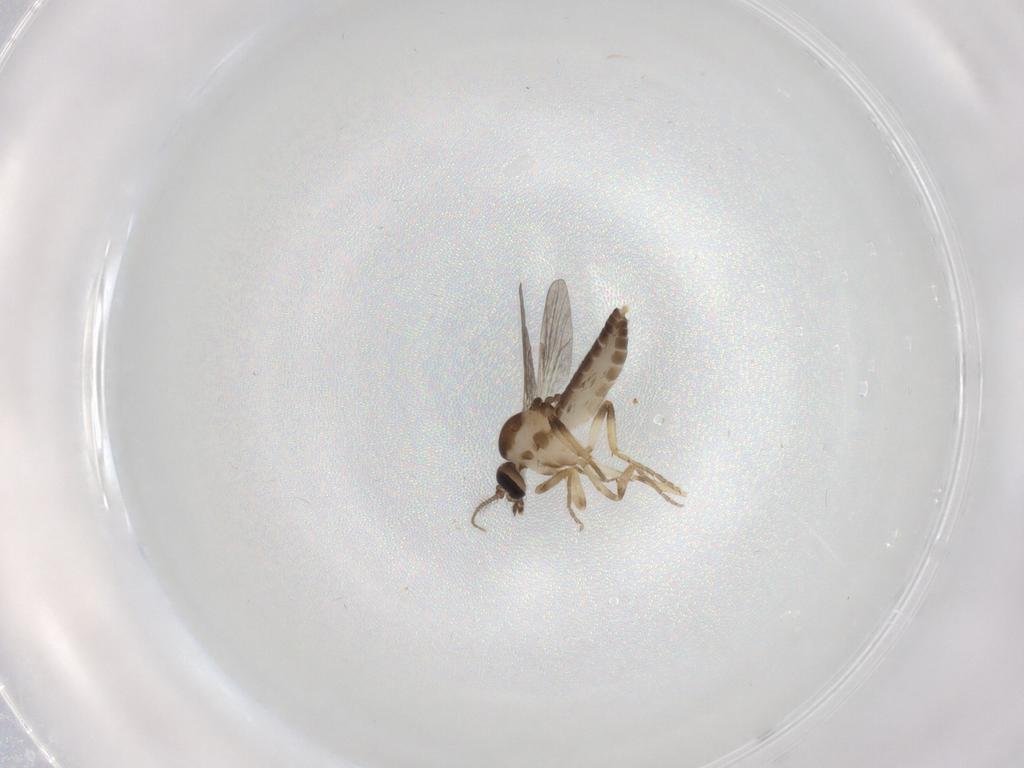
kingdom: Animalia
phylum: Arthropoda
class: Insecta
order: Diptera
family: Ceratopogonidae
